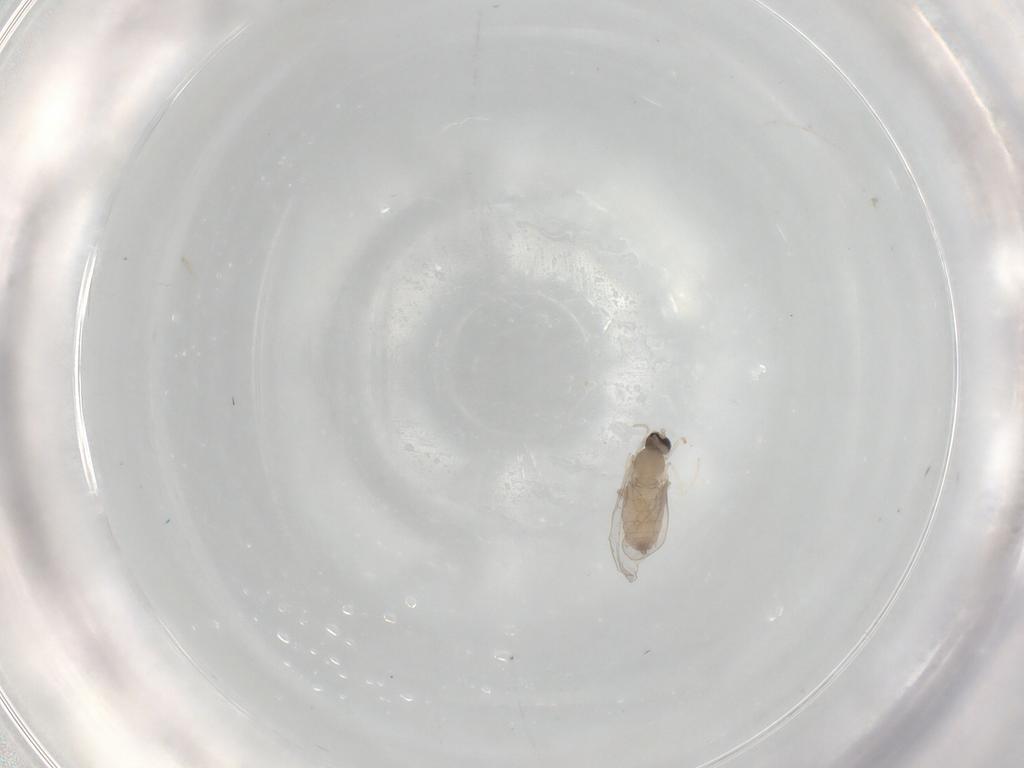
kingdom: Animalia
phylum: Arthropoda
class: Insecta
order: Diptera
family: Cecidomyiidae
